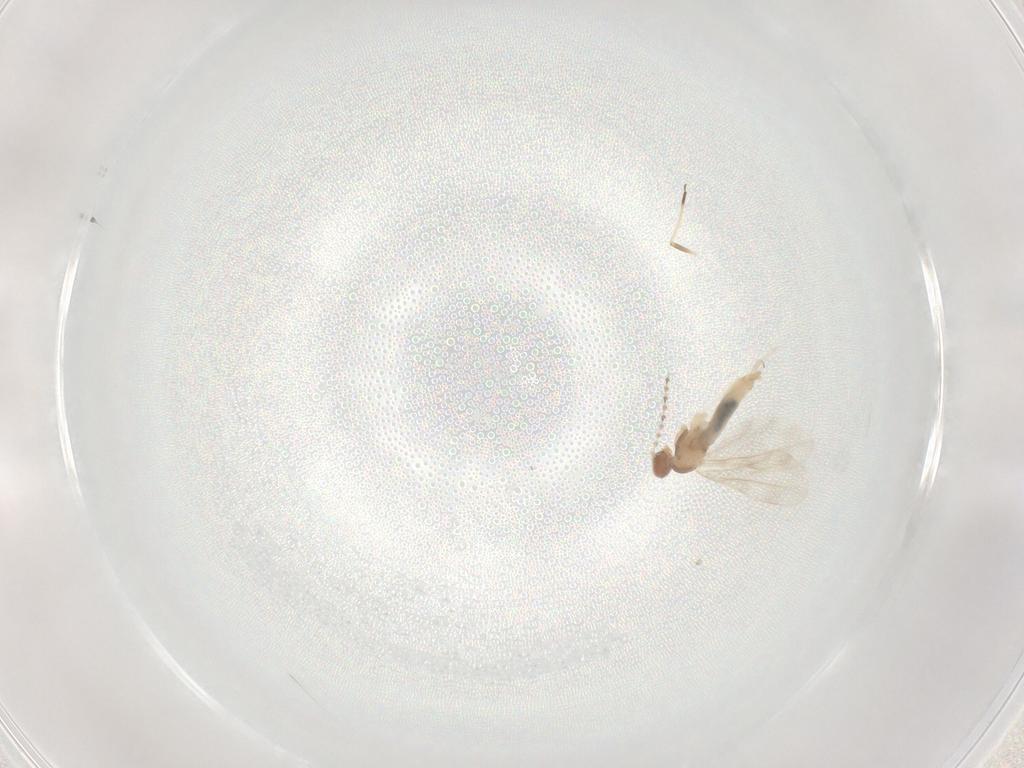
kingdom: Animalia
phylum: Arthropoda
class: Insecta
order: Diptera
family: Cecidomyiidae
